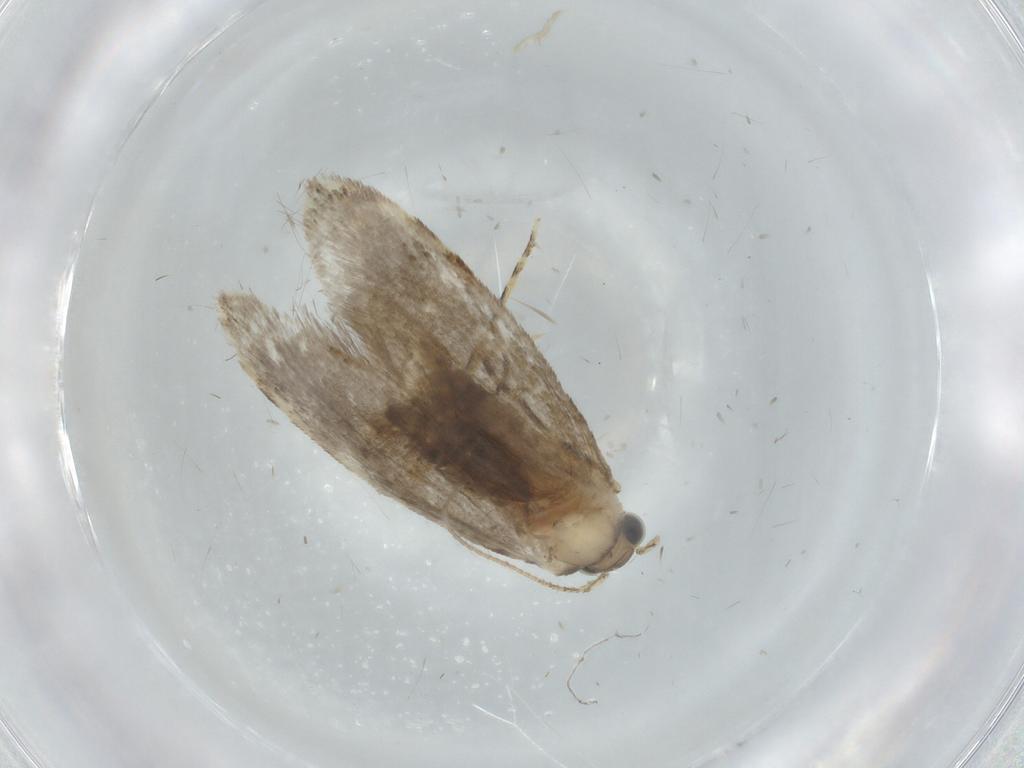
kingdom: Animalia
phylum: Arthropoda
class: Insecta
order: Lepidoptera
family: Tineidae
